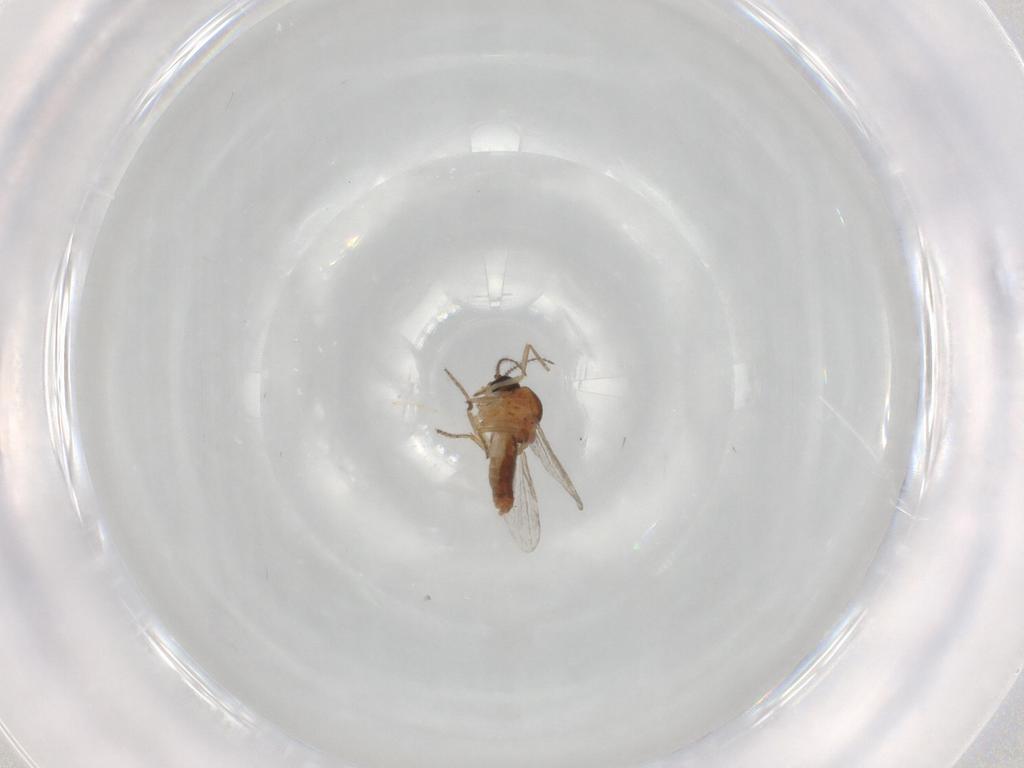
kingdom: Animalia
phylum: Arthropoda
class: Insecta
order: Diptera
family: Ceratopogonidae
